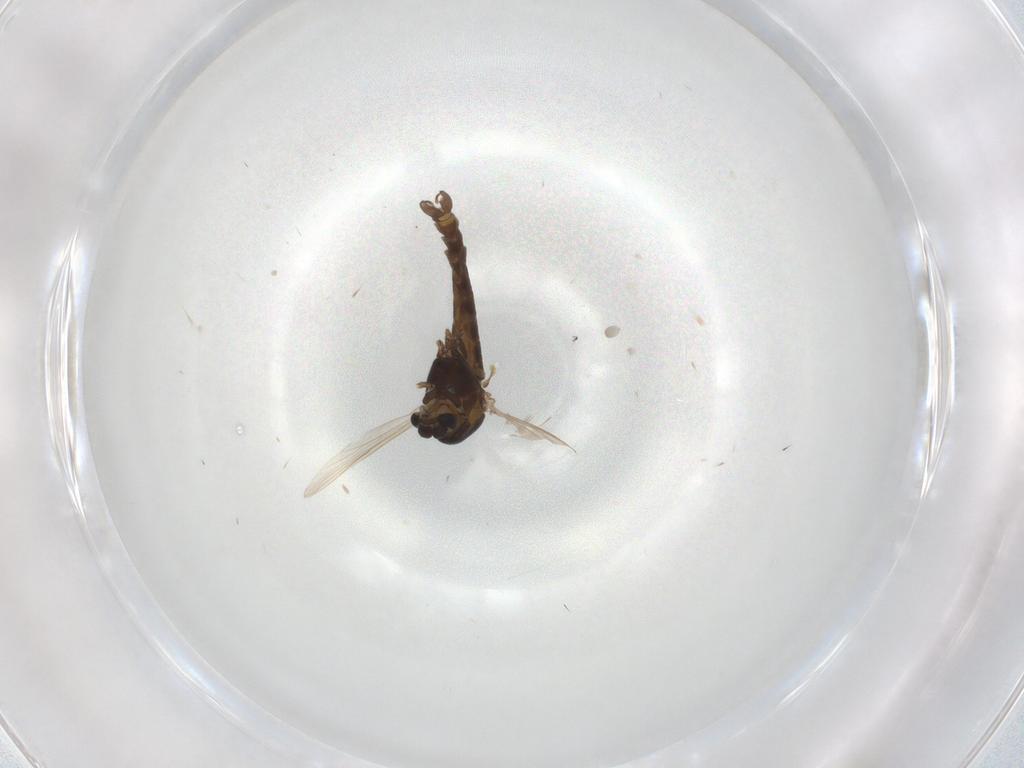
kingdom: Animalia
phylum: Arthropoda
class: Insecta
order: Diptera
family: Chironomidae
